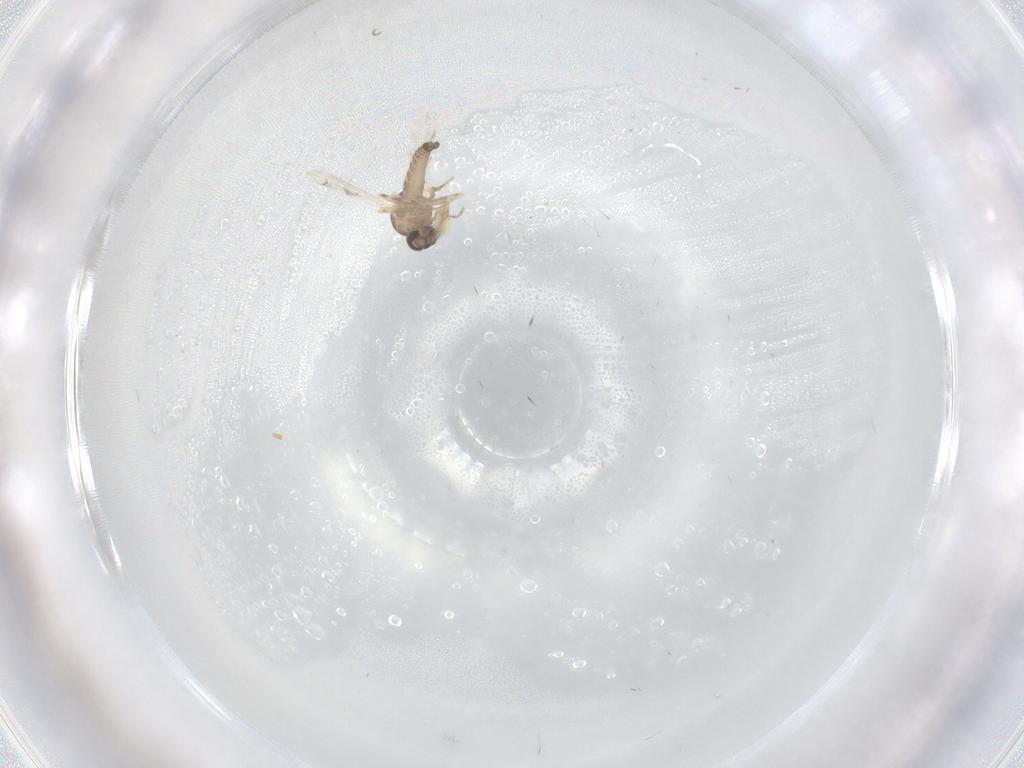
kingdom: Animalia
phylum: Arthropoda
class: Insecta
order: Diptera
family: Ceratopogonidae
